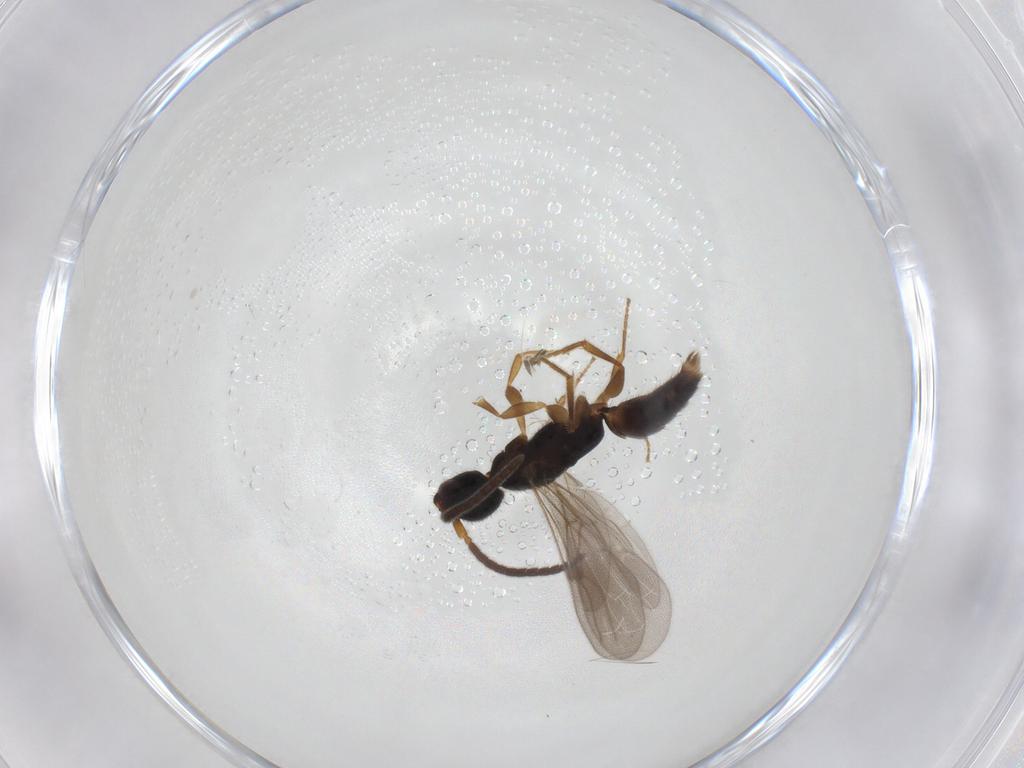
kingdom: Animalia
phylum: Arthropoda
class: Insecta
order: Hymenoptera
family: Bethylidae
